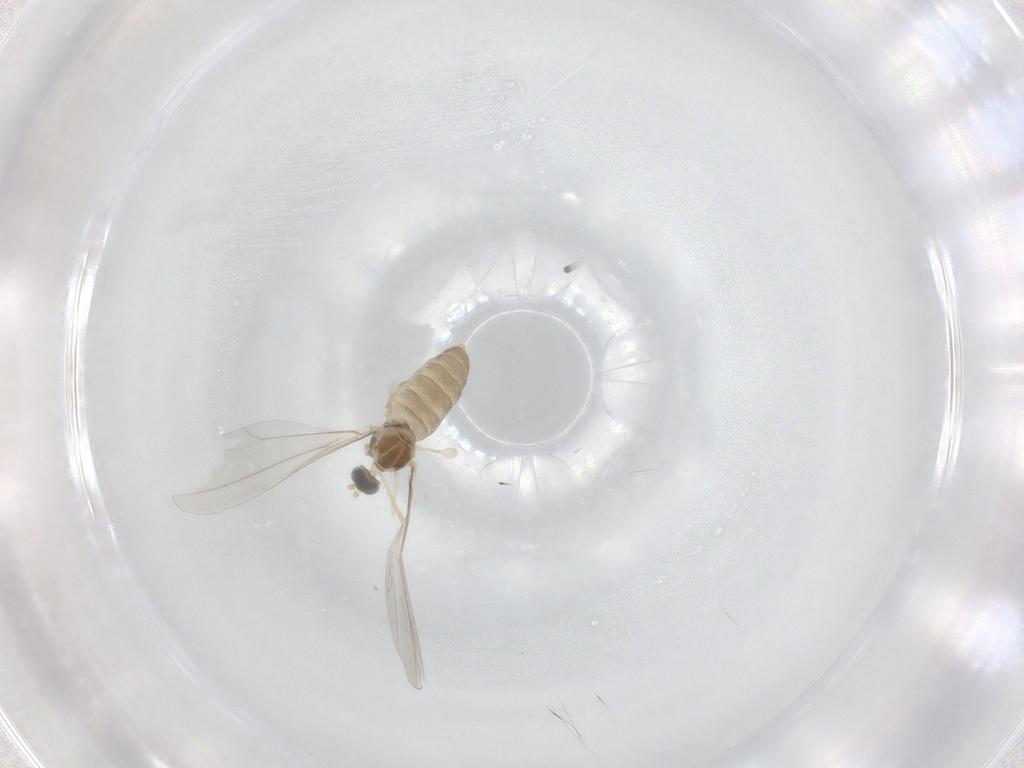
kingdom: Animalia
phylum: Arthropoda
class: Insecta
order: Diptera
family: Cecidomyiidae
